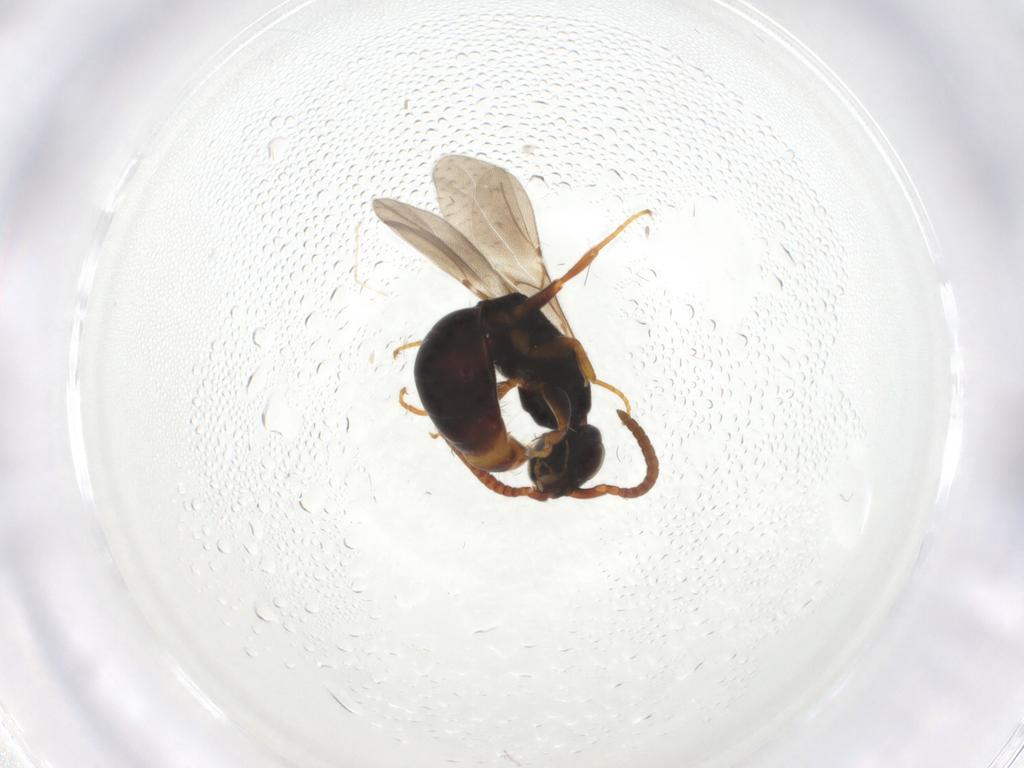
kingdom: Animalia
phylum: Arthropoda
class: Insecta
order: Hymenoptera
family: Bethylidae
